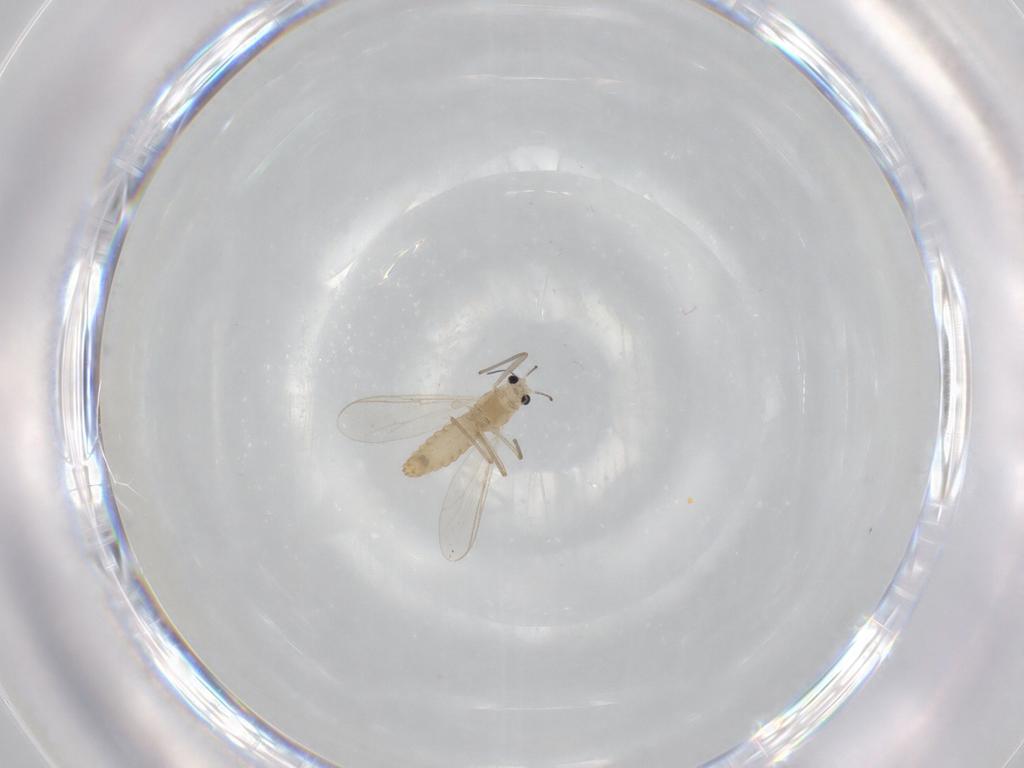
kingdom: Animalia
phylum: Arthropoda
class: Insecta
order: Diptera
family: Chironomidae
